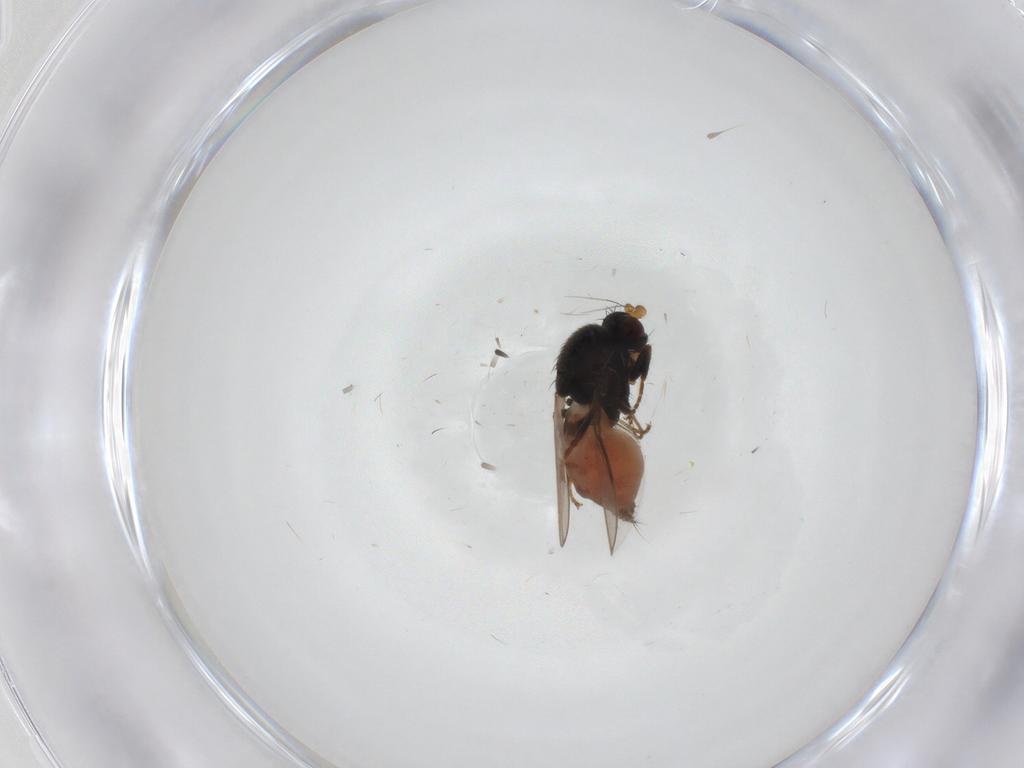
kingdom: Animalia
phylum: Arthropoda
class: Insecta
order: Diptera
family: Sphaeroceridae
